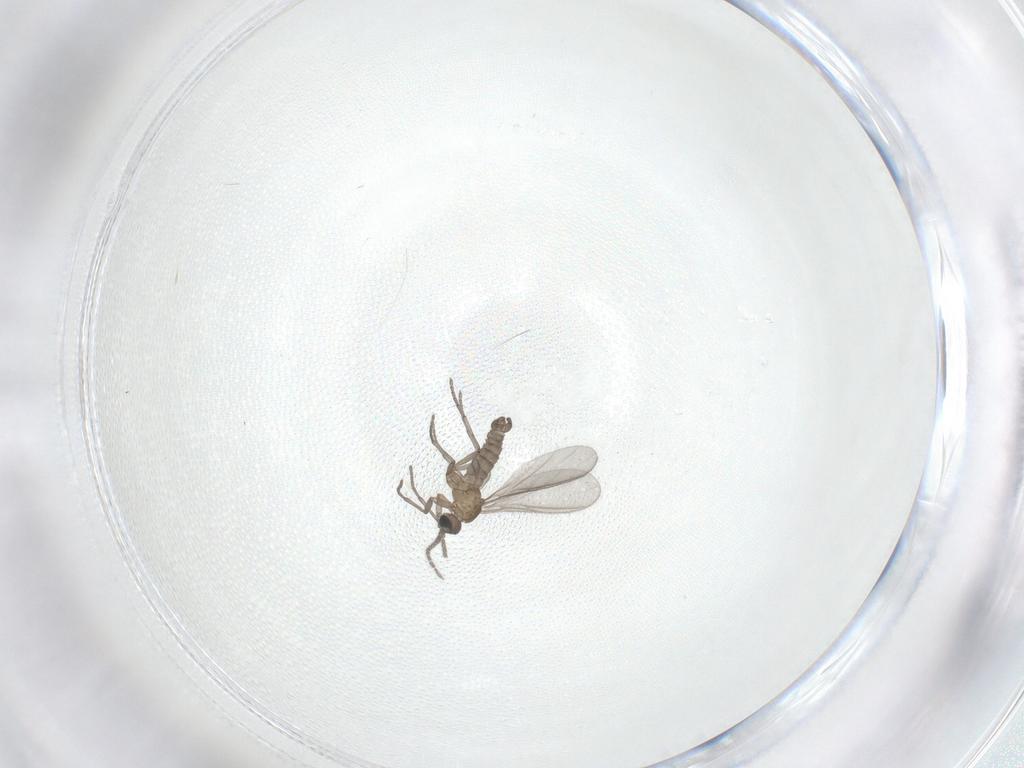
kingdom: Animalia
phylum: Arthropoda
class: Insecta
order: Diptera
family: Sciaridae
